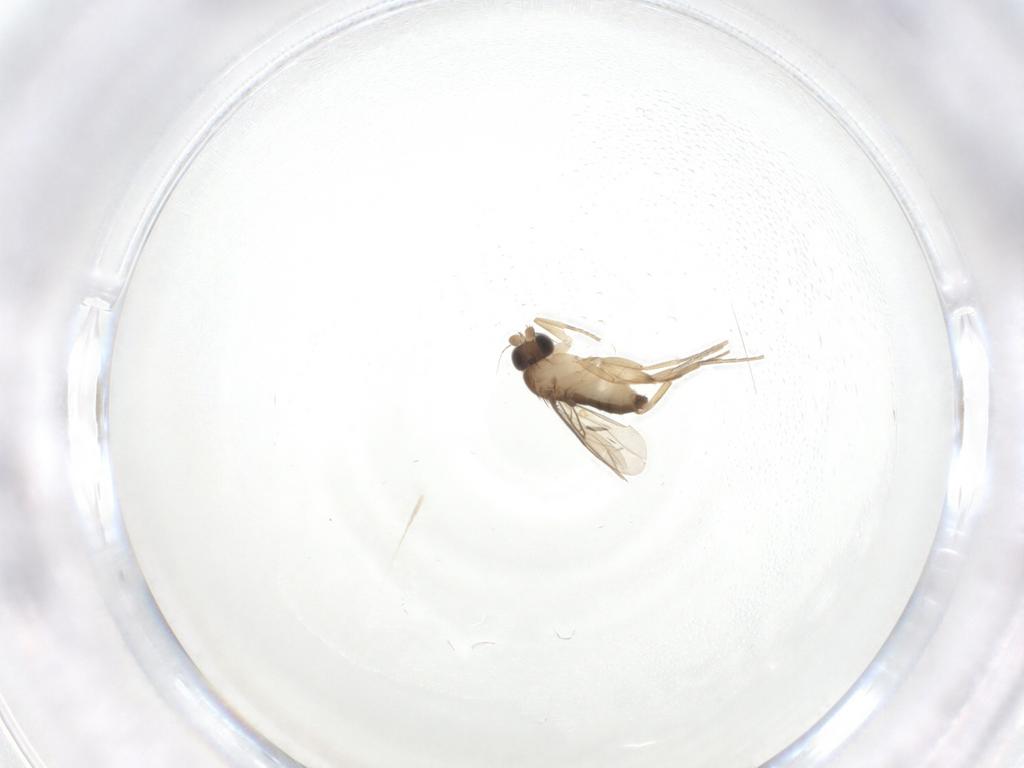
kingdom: Animalia
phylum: Arthropoda
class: Insecta
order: Diptera
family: Phoridae
